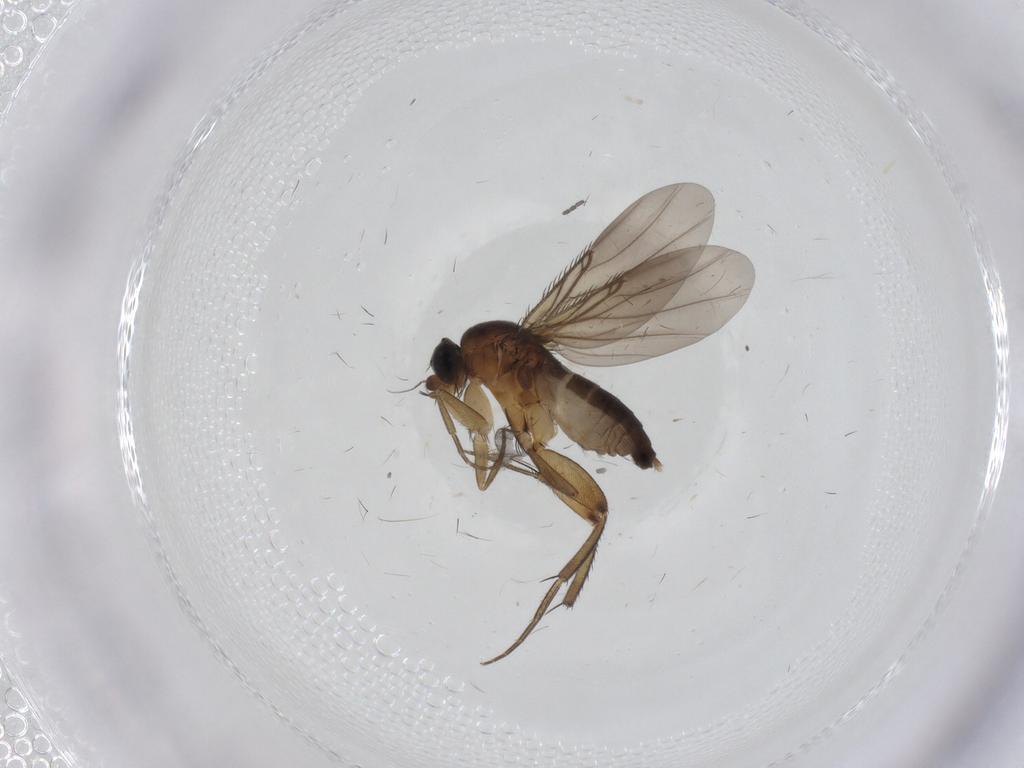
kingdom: Animalia
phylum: Arthropoda
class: Insecta
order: Diptera
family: Phoridae
